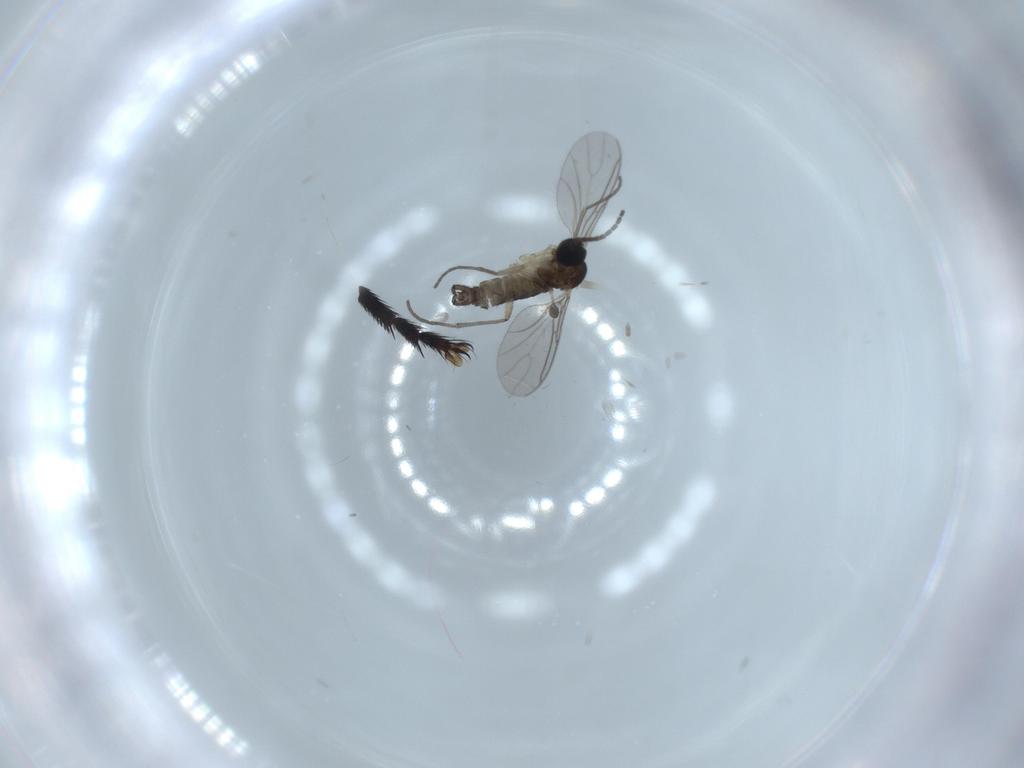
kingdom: Animalia
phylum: Arthropoda
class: Insecta
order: Diptera
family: Sciaridae
